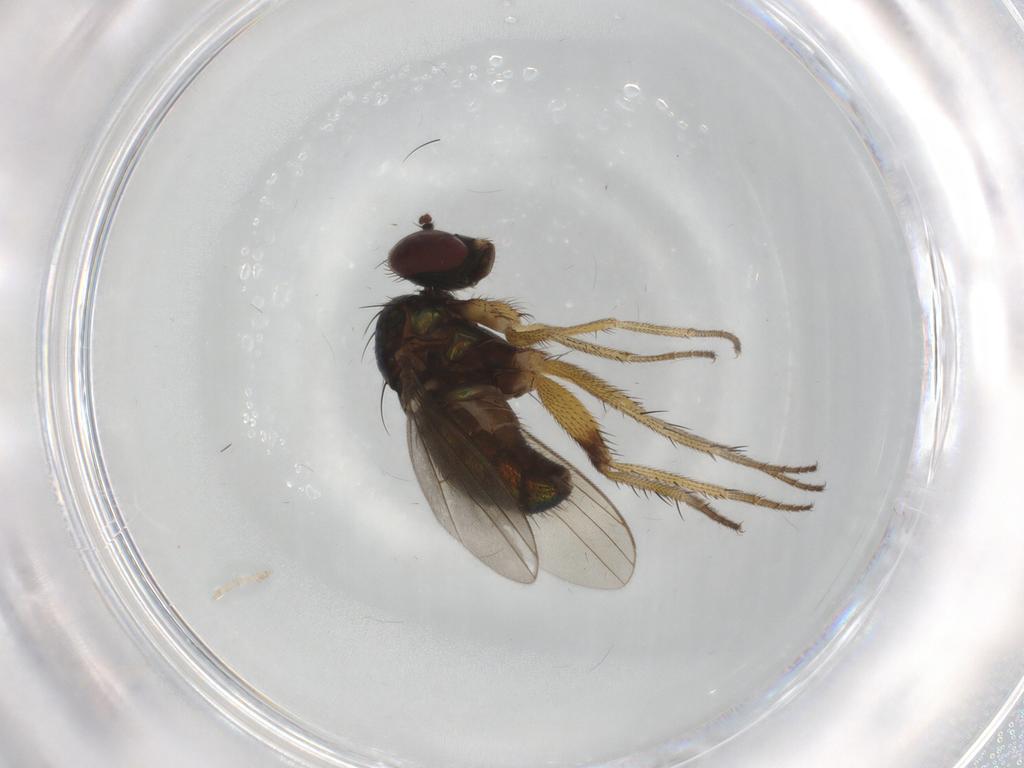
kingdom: Animalia
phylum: Arthropoda
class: Insecta
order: Diptera
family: Dolichopodidae
